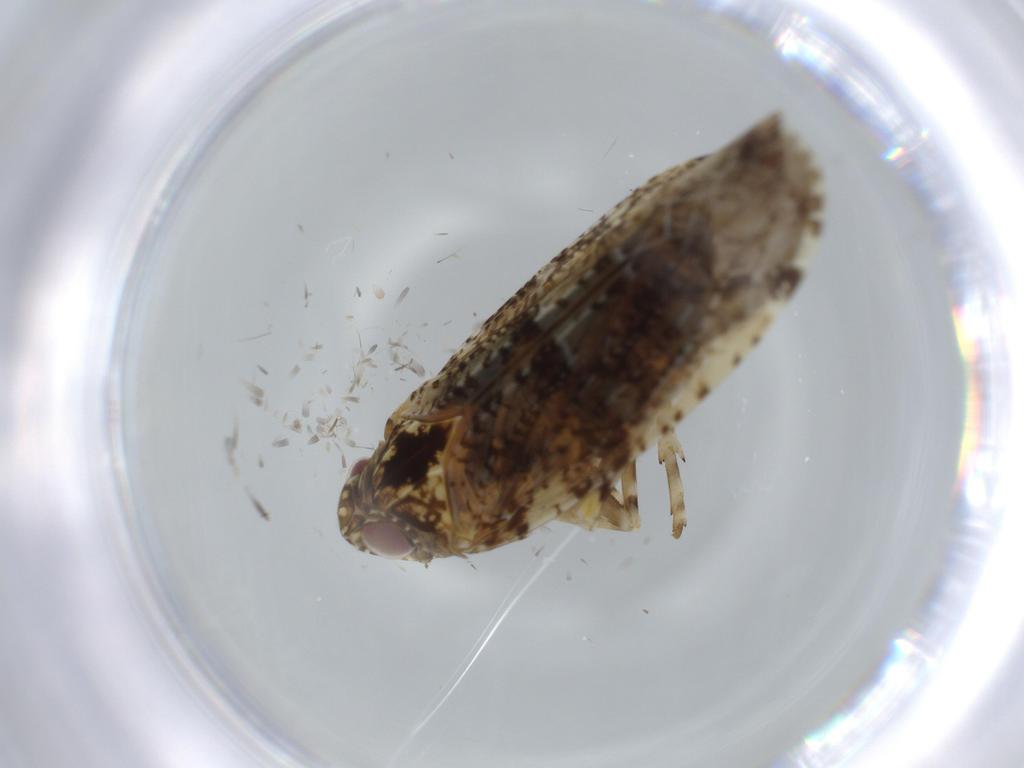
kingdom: Animalia
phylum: Arthropoda
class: Insecta
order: Hemiptera
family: Achilidae
